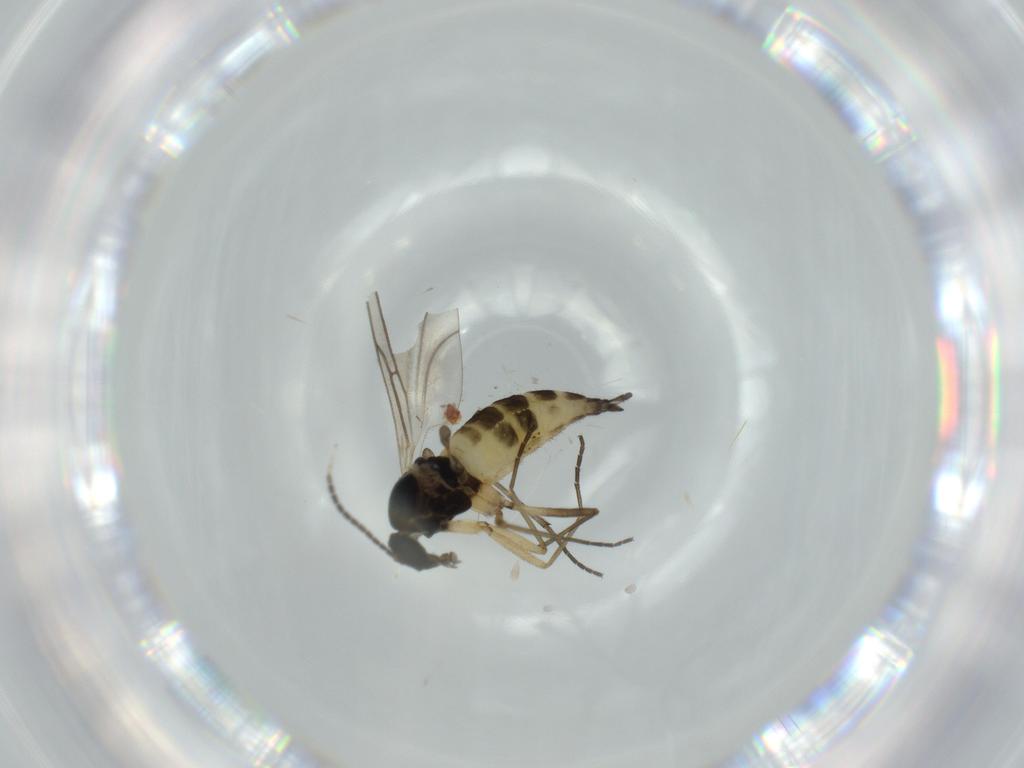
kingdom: Animalia
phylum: Arthropoda
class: Insecta
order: Diptera
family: Sciaridae
